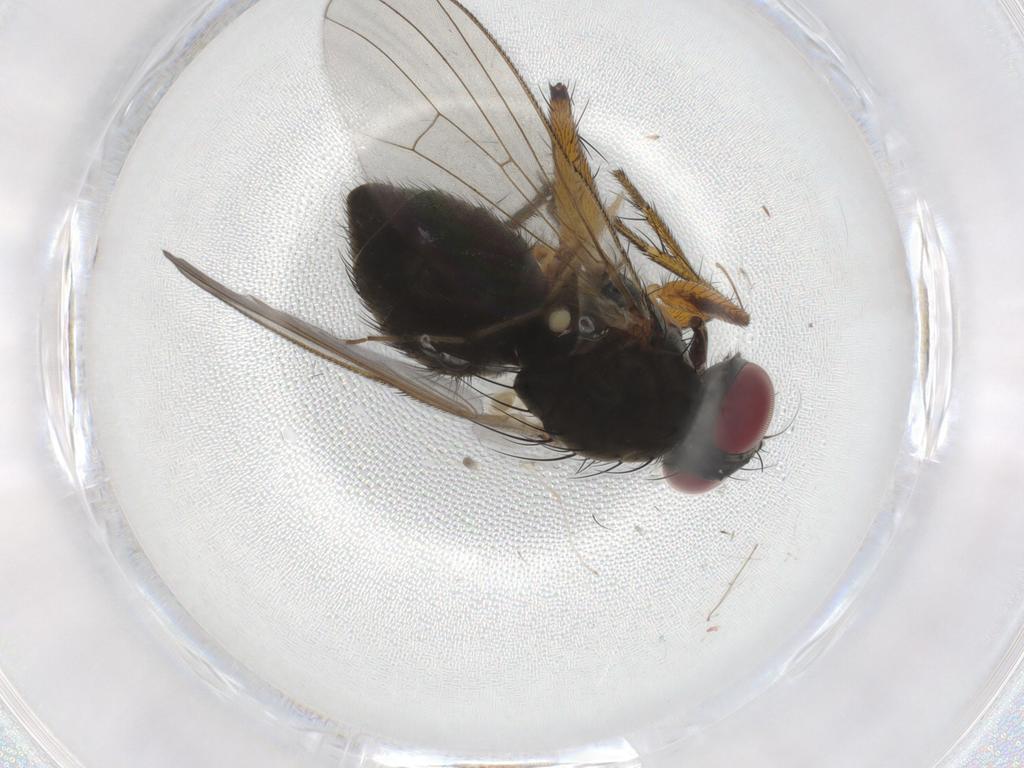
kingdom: Animalia
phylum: Arthropoda
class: Insecta
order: Diptera
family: Muscidae
